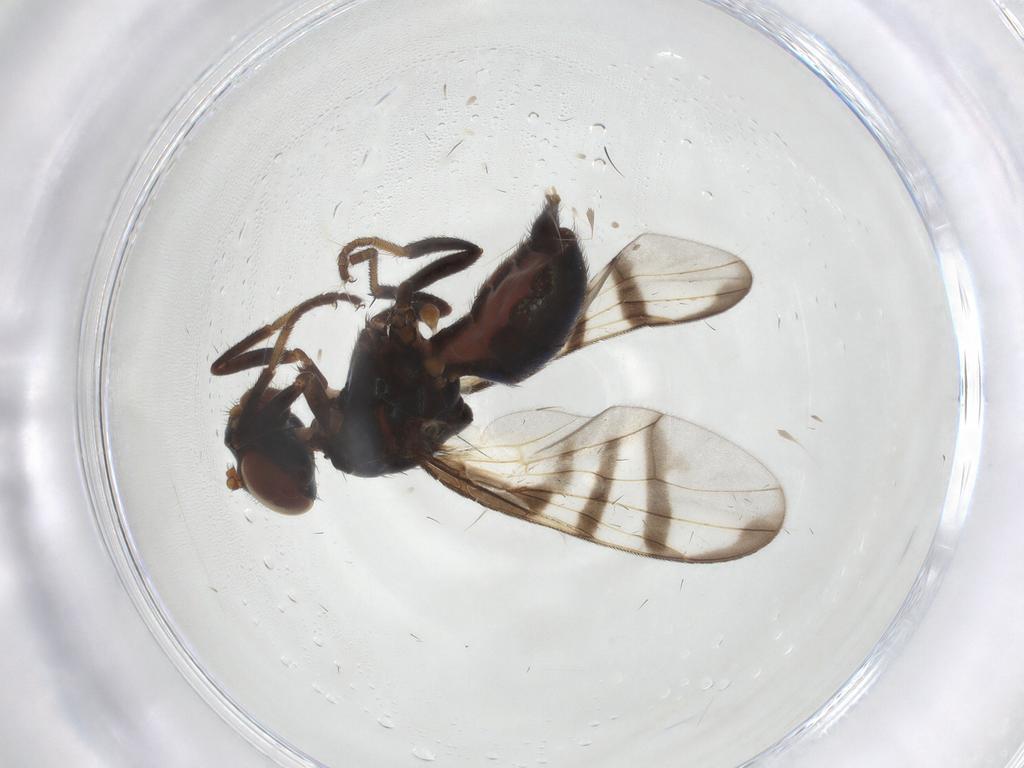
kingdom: Animalia
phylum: Arthropoda
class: Insecta
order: Diptera
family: Platystomatidae
